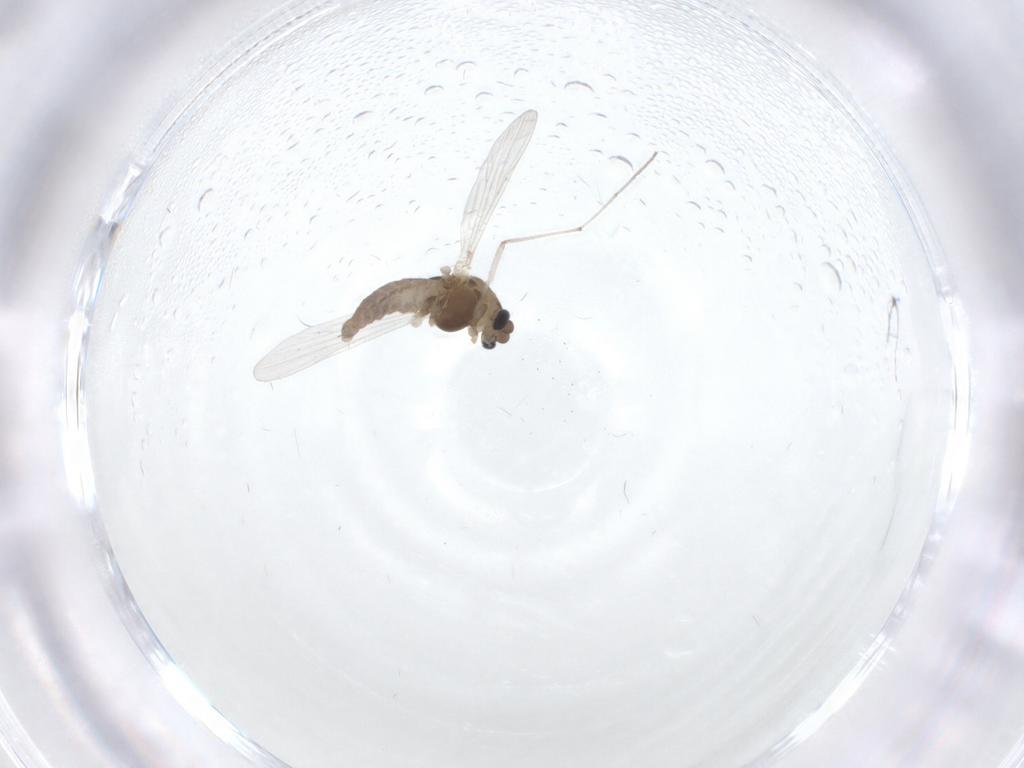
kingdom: Animalia
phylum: Arthropoda
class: Insecta
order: Diptera
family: Chironomidae
